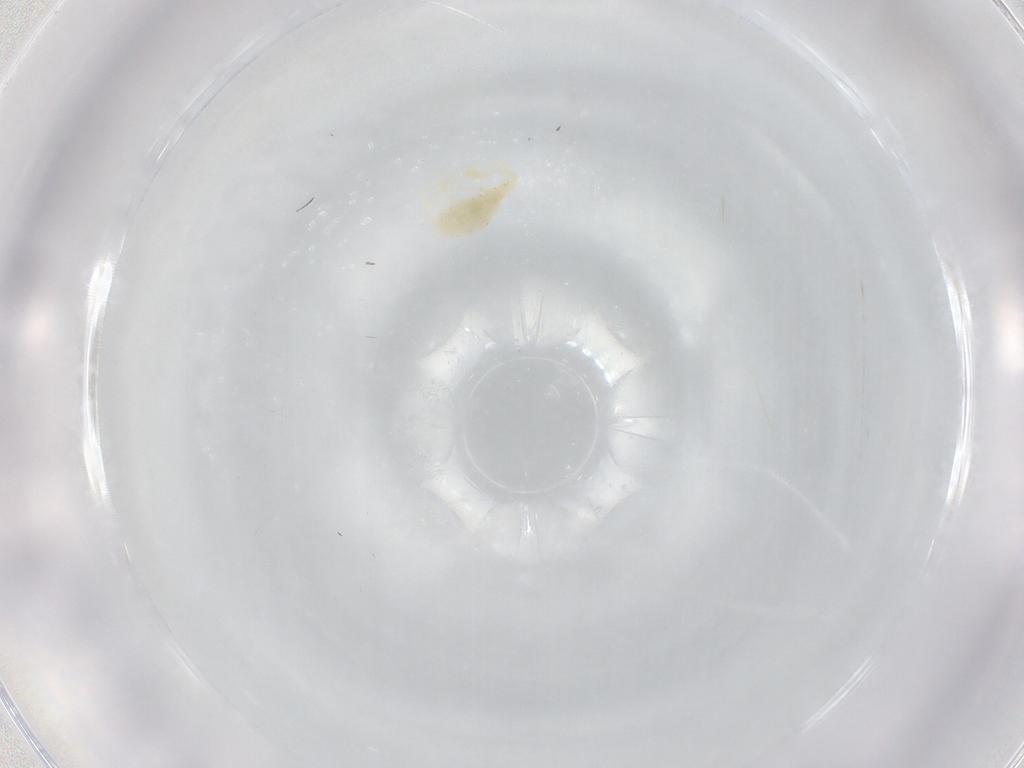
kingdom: Animalia
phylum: Arthropoda
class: Arachnida
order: Trombidiformes
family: Erythraeidae
